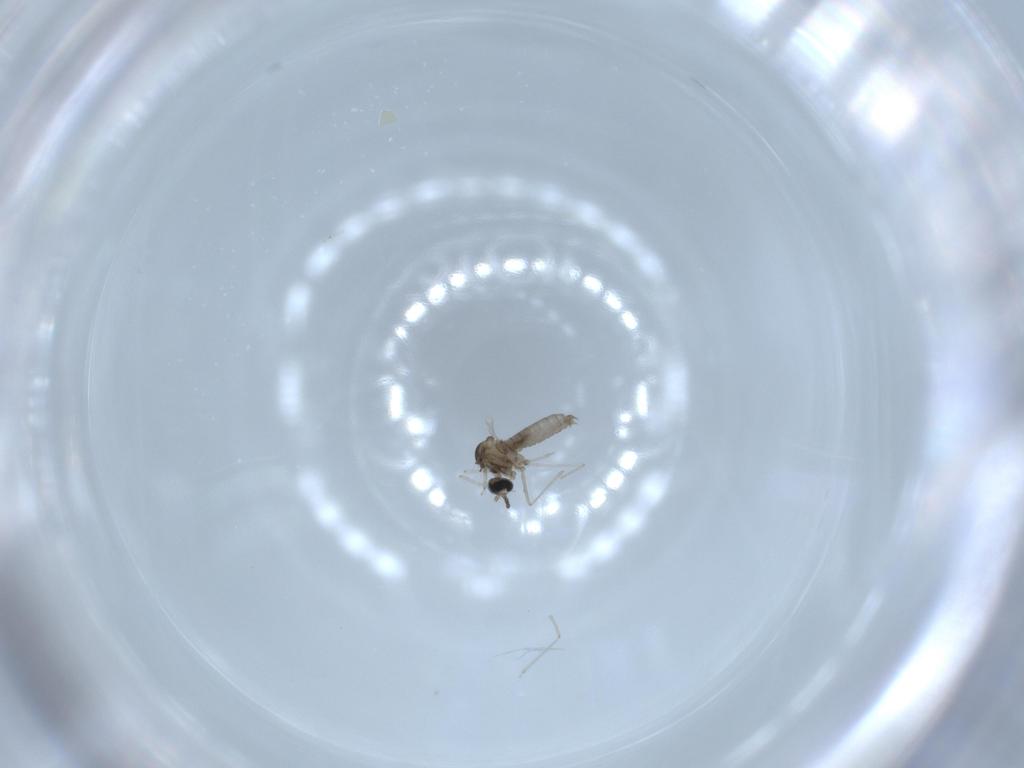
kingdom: Animalia
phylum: Arthropoda
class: Insecta
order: Diptera
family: Cecidomyiidae
